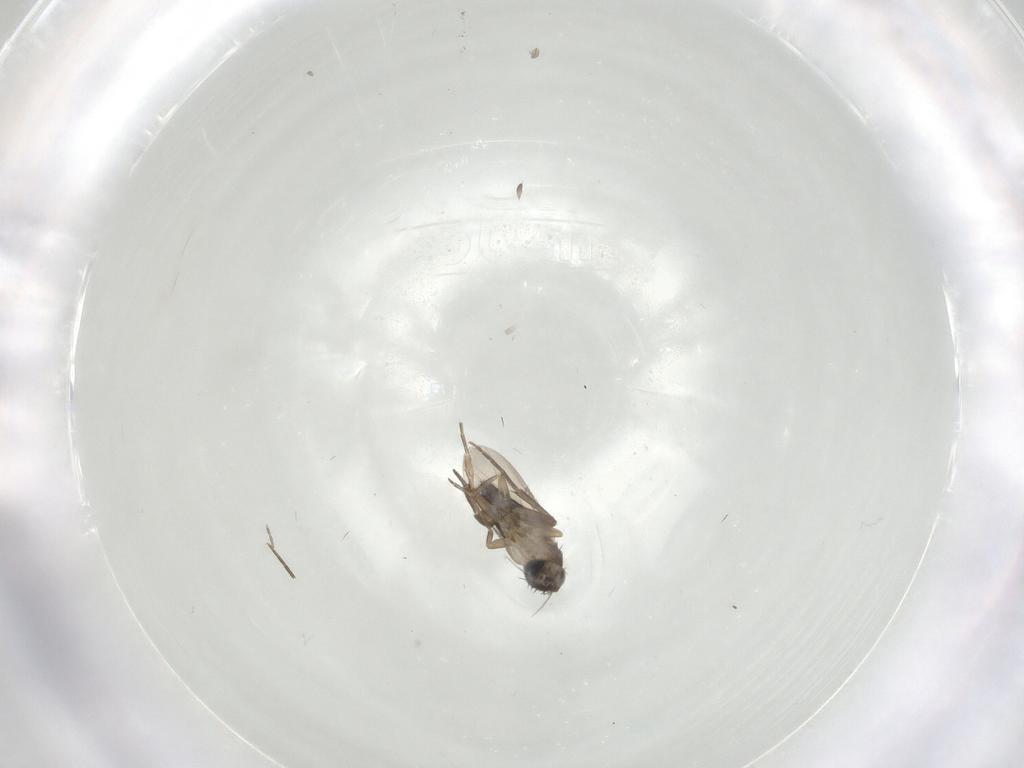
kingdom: Animalia
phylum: Arthropoda
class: Insecta
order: Diptera
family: Phoridae
